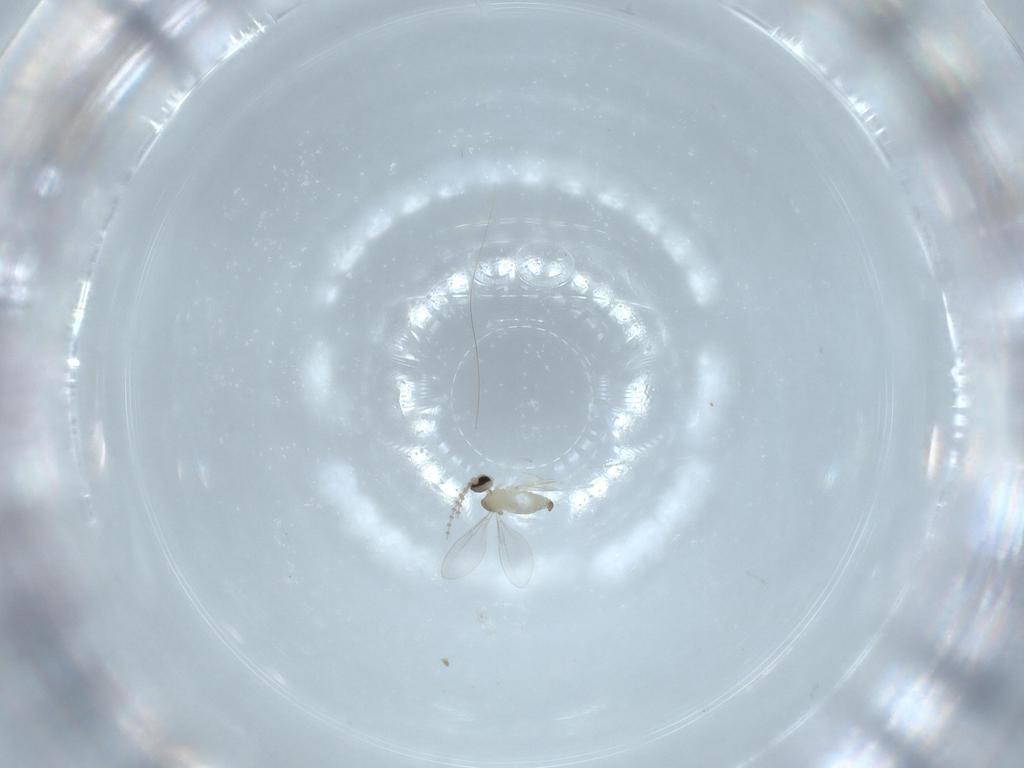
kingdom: Animalia
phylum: Arthropoda
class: Insecta
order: Diptera
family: Cecidomyiidae
